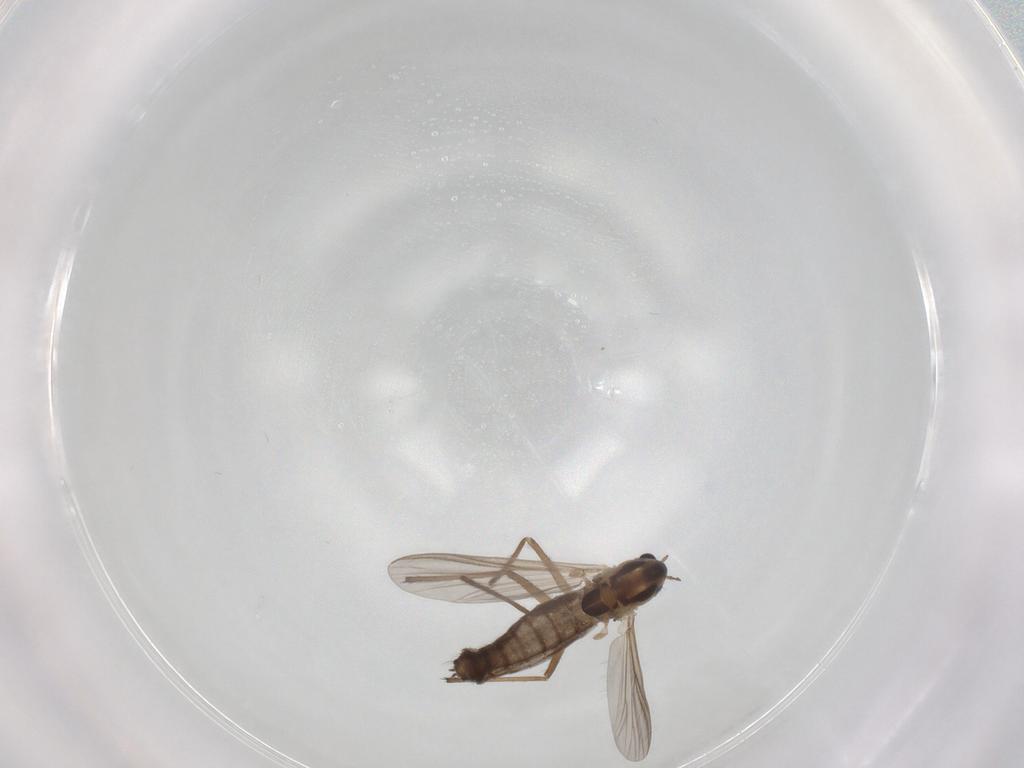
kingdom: Animalia
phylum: Arthropoda
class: Insecta
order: Diptera
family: Chironomidae
